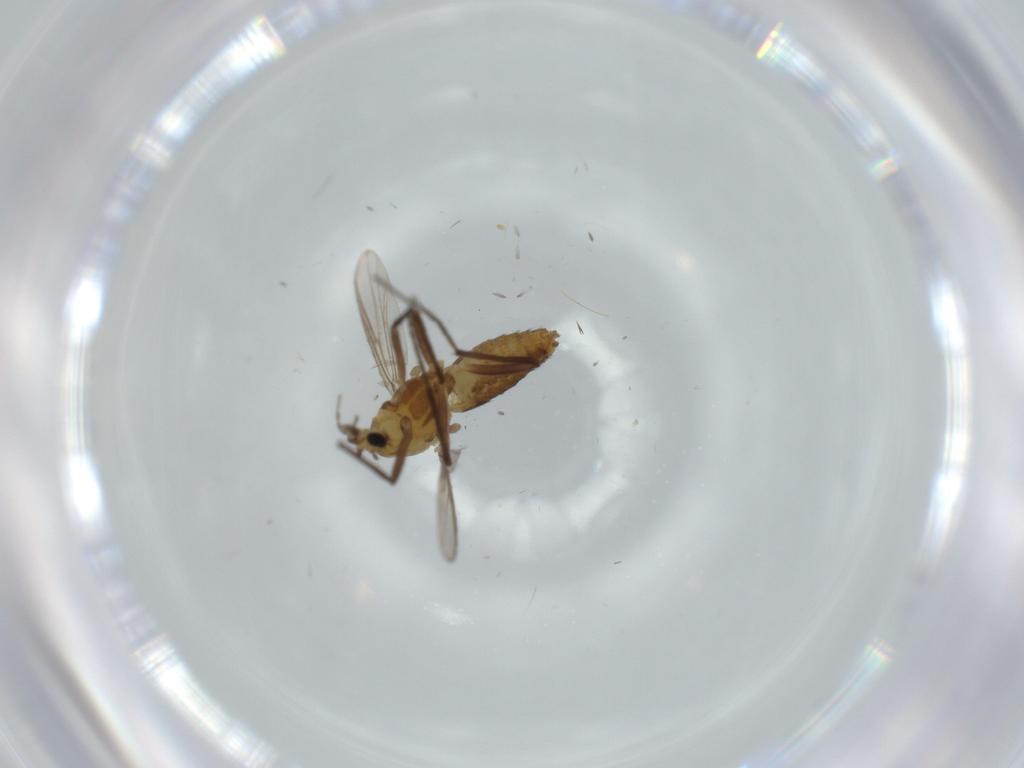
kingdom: Animalia
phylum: Arthropoda
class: Insecta
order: Diptera
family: Chironomidae
